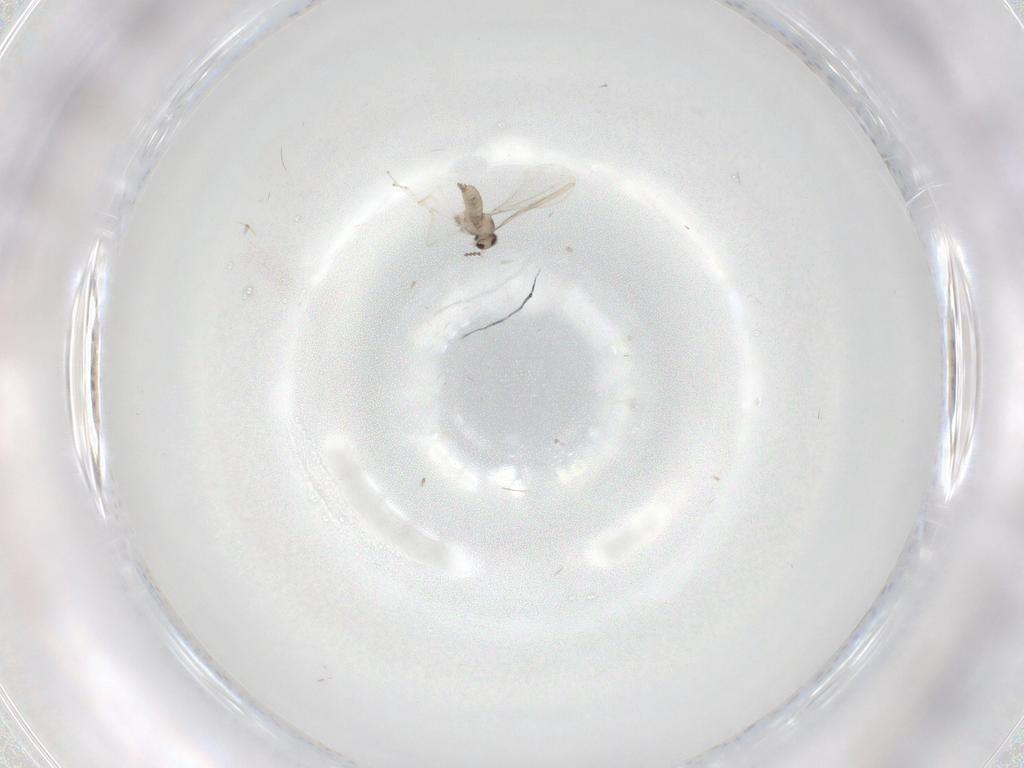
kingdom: Animalia
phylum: Arthropoda
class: Insecta
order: Diptera
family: Cecidomyiidae
